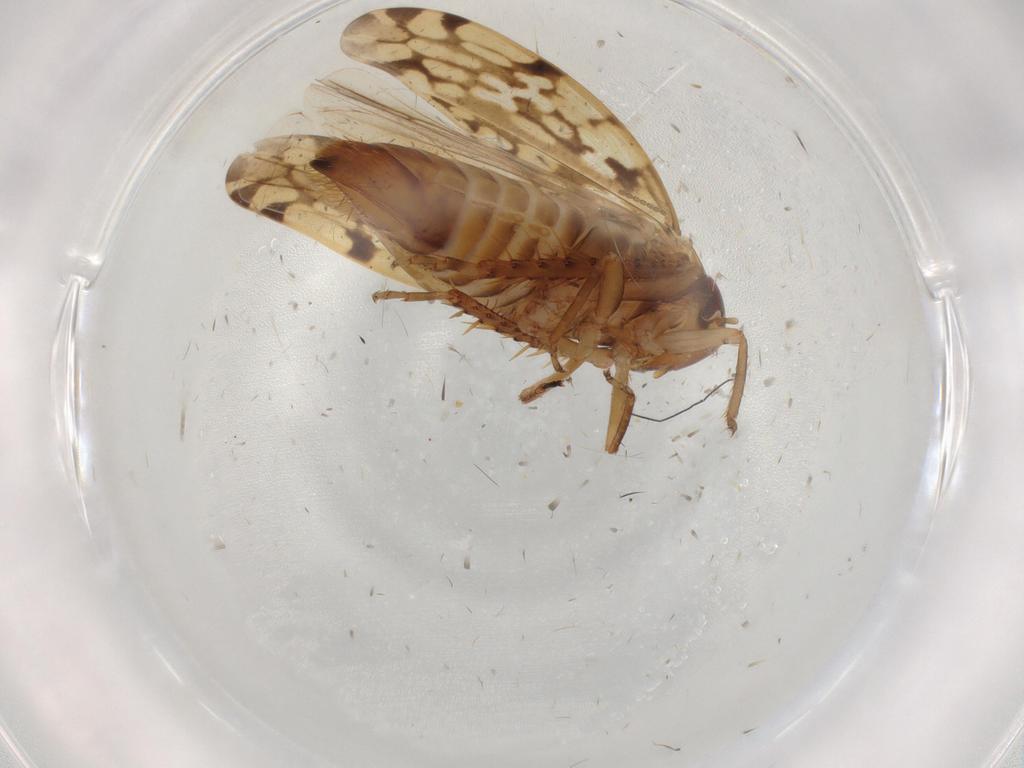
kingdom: Animalia
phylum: Arthropoda
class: Insecta
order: Hemiptera
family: Cicadellidae
